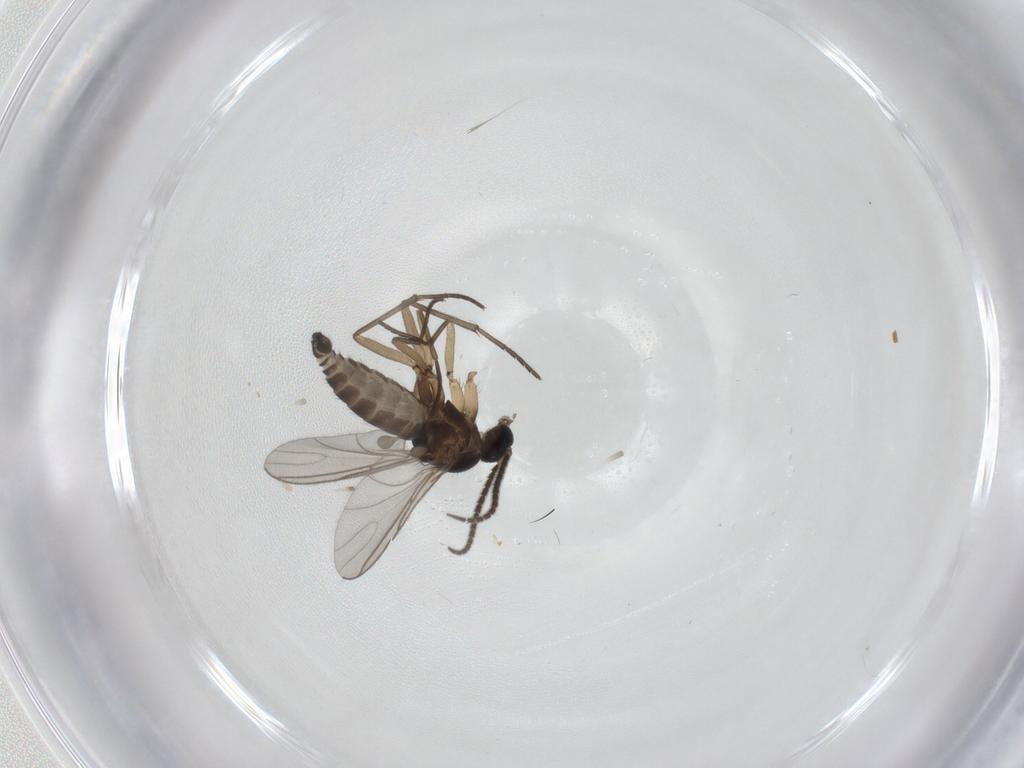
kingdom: Animalia
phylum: Arthropoda
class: Insecta
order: Diptera
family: Sciaridae
